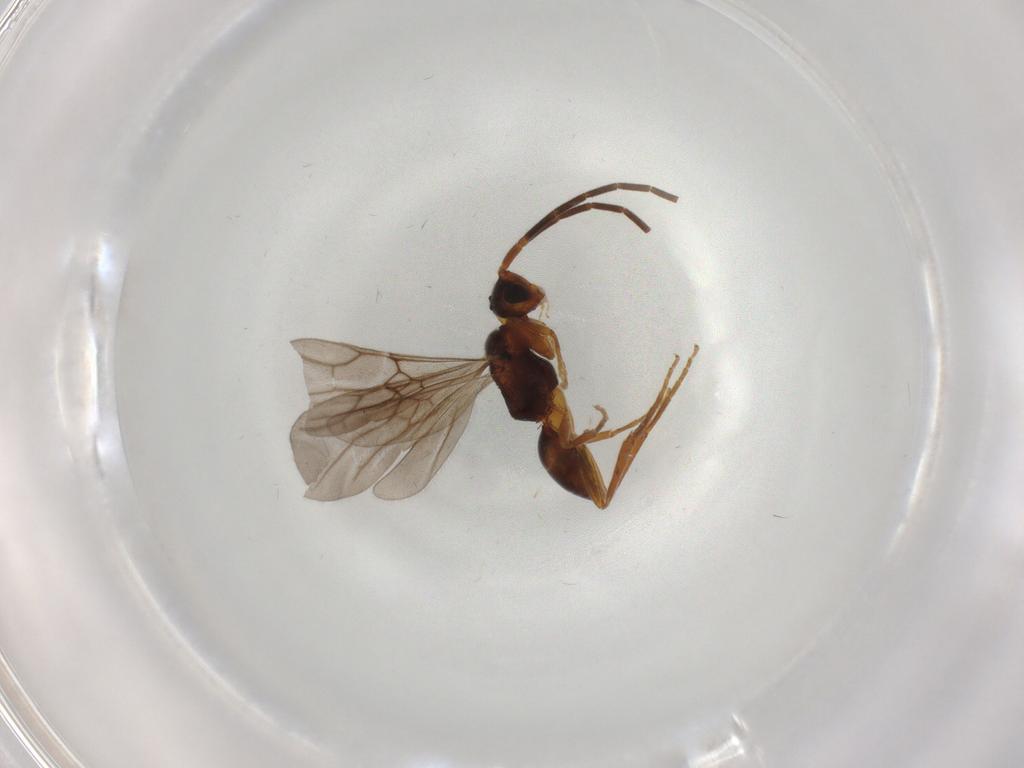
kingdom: Animalia
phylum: Arthropoda
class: Insecta
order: Hymenoptera
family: Embolemidae
